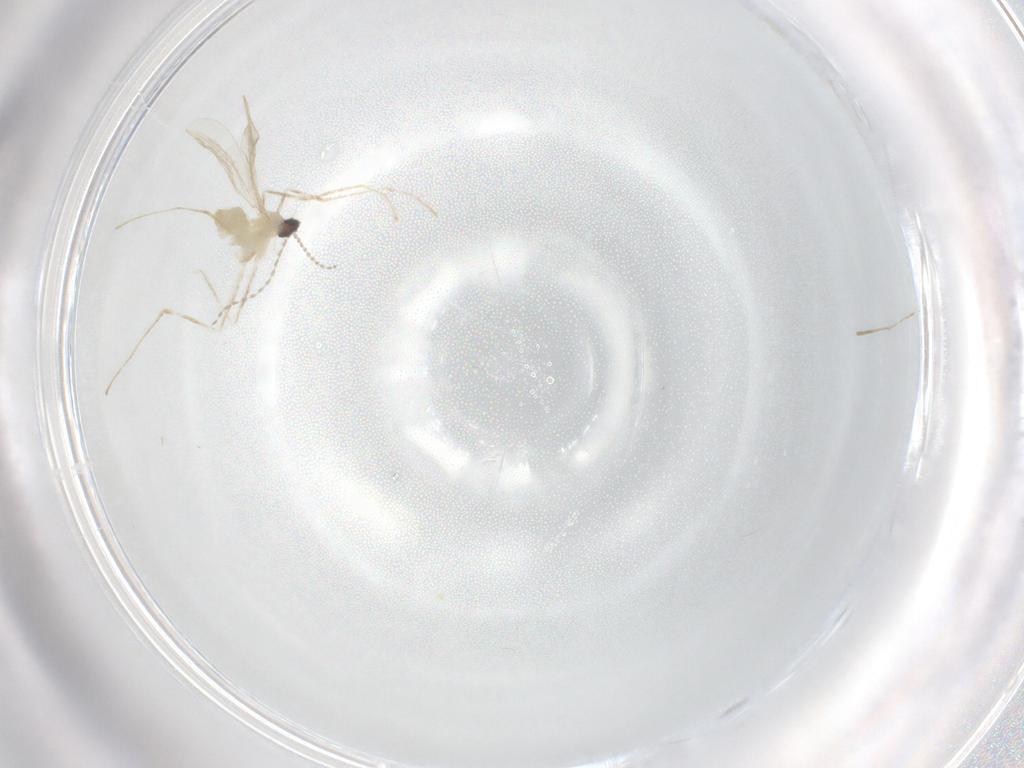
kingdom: Animalia
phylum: Arthropoda
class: Insecta
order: Diptera
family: Cecidomyiidae
